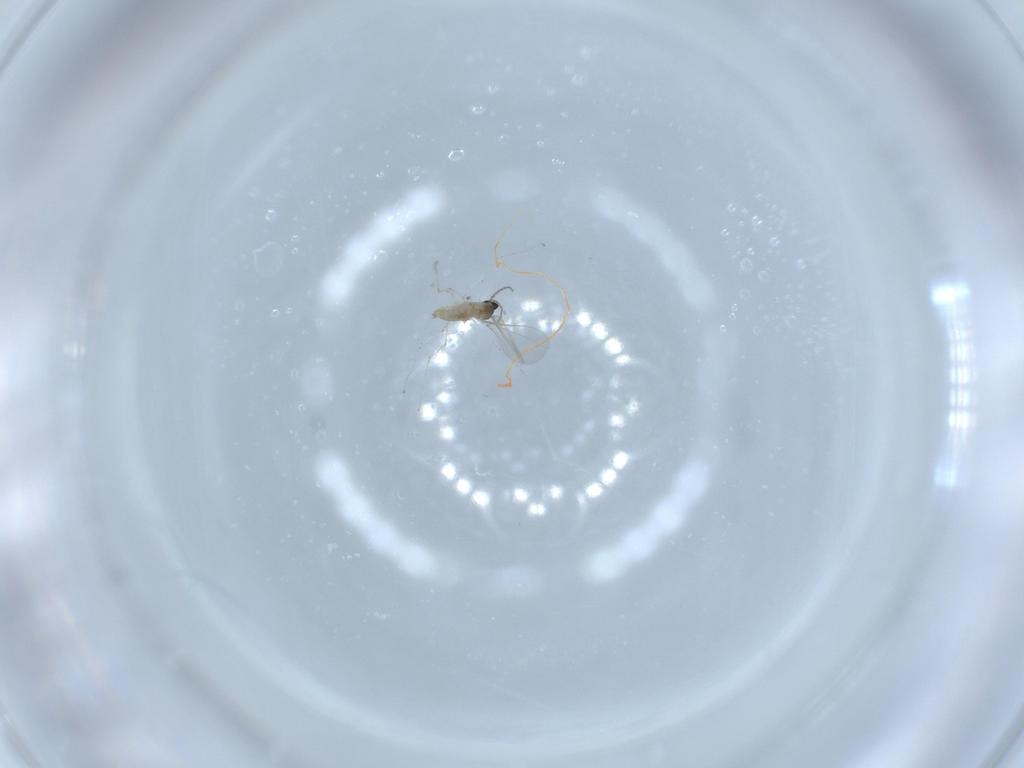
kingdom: Animalia
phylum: Arthropoda
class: Insecta
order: Diptera
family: Cecidomyiidae
